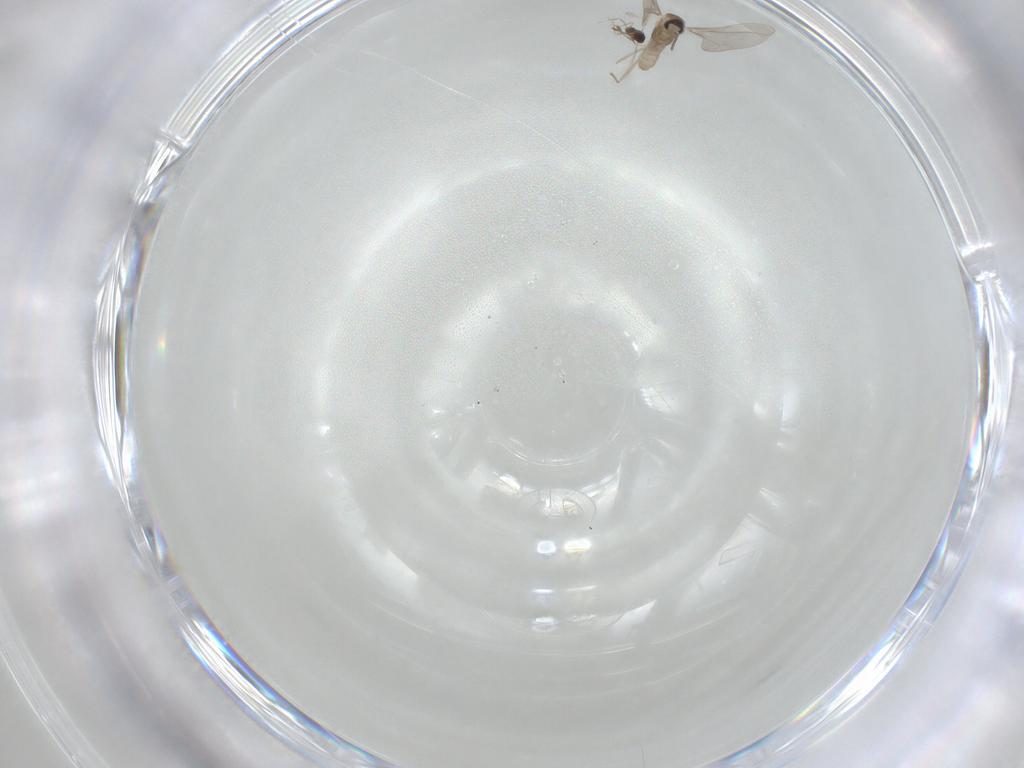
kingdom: Animalia
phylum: Arthropoda
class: Insecta
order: Diptera
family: Cecidomyiidae
